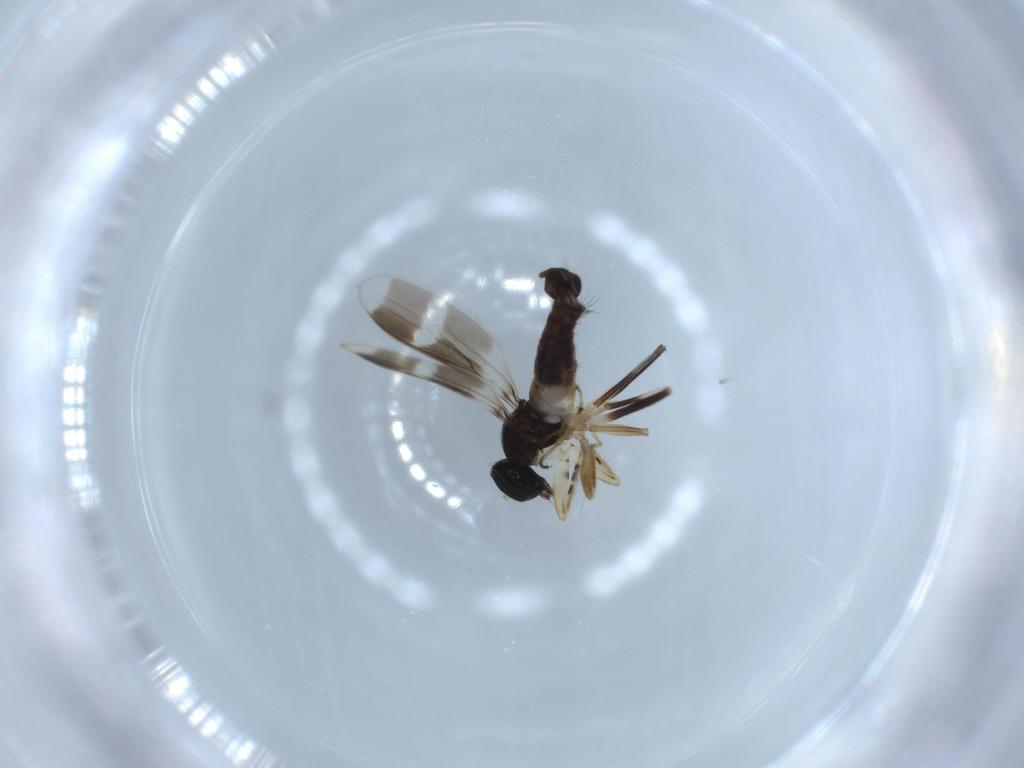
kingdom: Animalia
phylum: Arthropoda
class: Insecta
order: Diptera
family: Hybotidae
